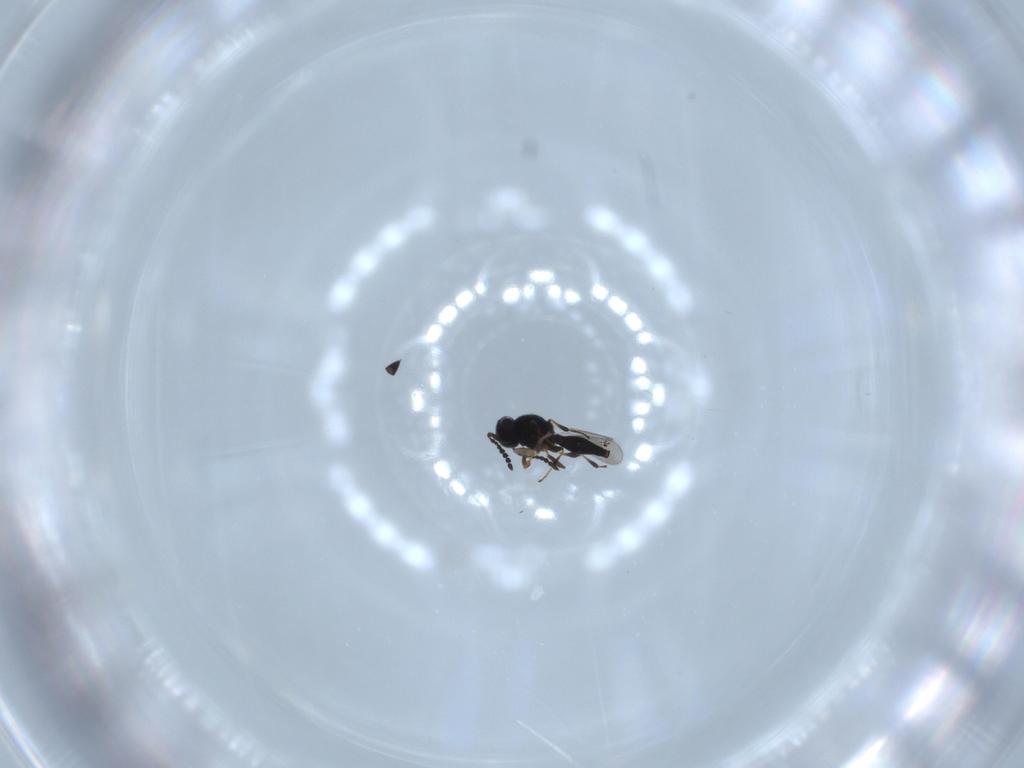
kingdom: Animalia
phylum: Arthropoda
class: Insecta
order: Hymenoptera
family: Platygastridae
